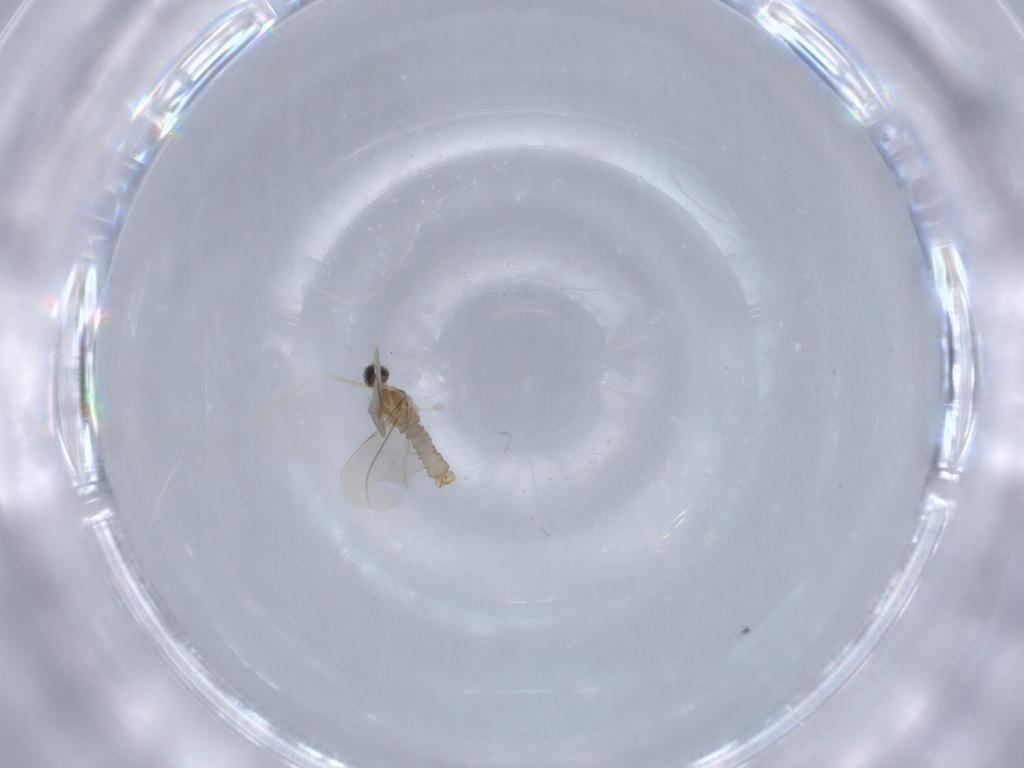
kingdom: Animalia
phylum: Arthropoda
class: Insecta
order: Diptera
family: Cecidomyiidae
